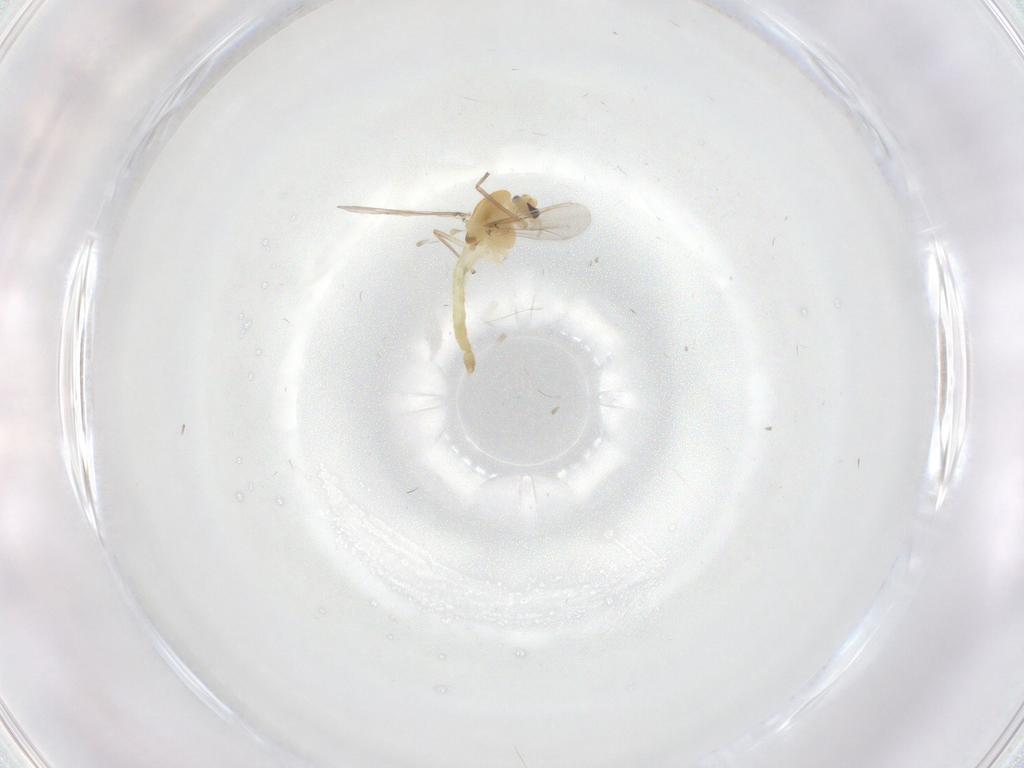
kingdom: Animalia
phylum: Arthropoda
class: Insecta
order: Diptera
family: Chironomidae
